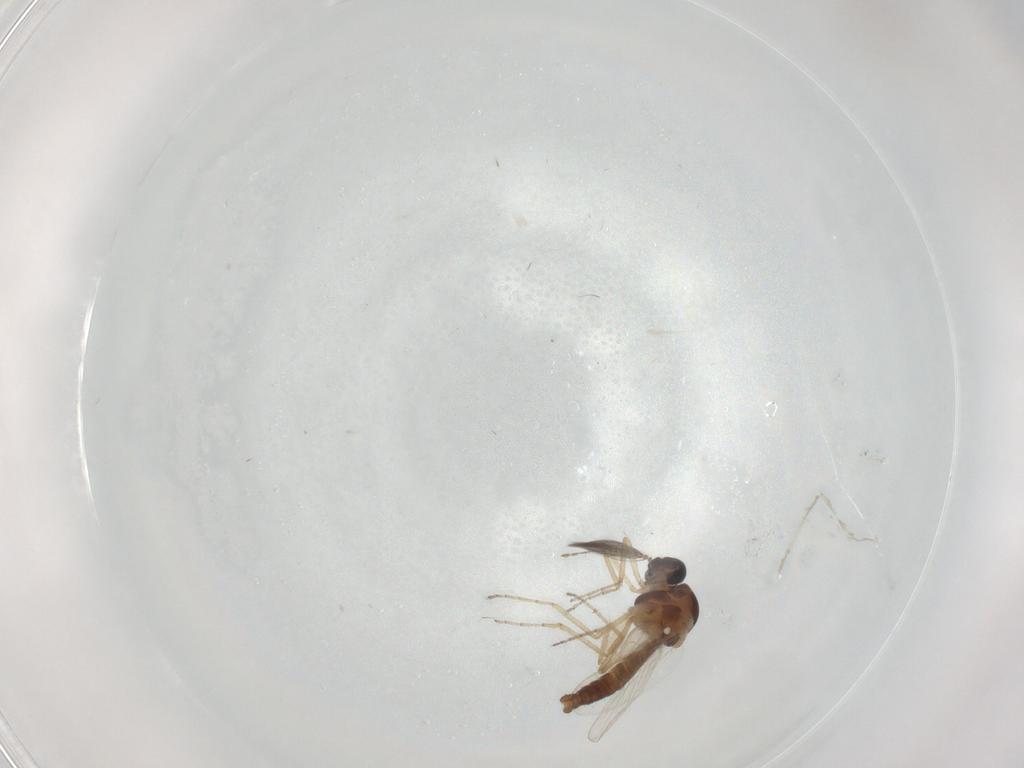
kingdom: Animalia
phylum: Arthropoda
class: Insecta
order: Diptera
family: Ceratopogonidae
